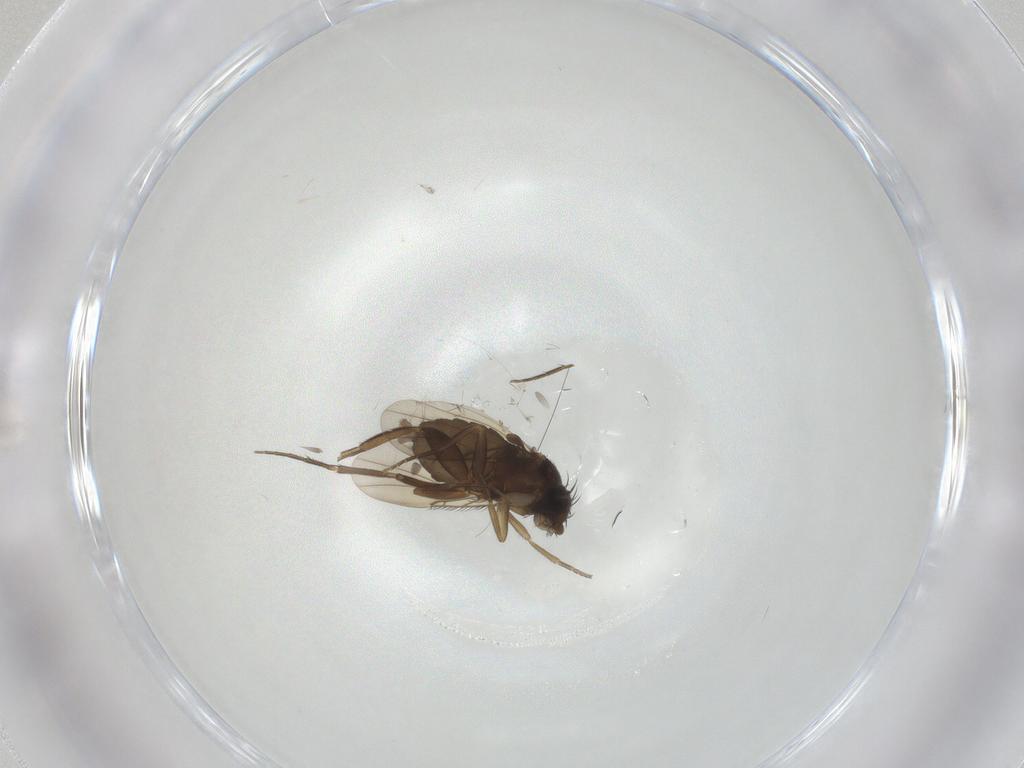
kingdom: Animalia
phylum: Arthropoda
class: Insecta
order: Diptera
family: Phoridae
